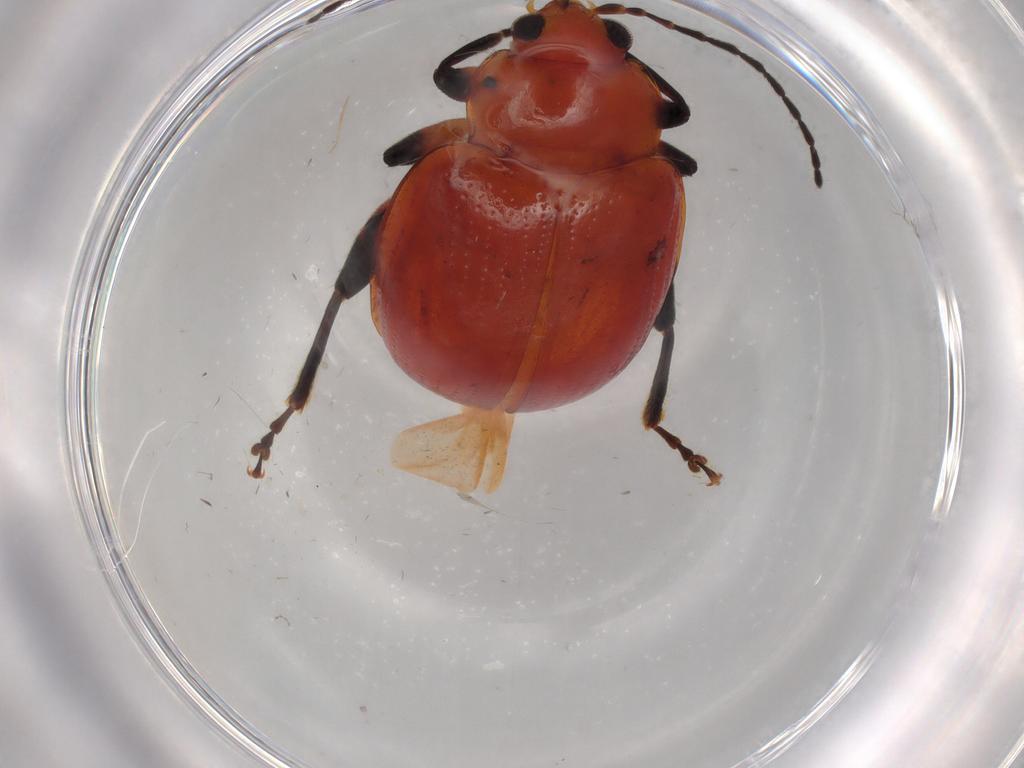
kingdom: Animalia
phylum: Arthropoda
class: Insecta
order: Coleoptera
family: Chrysomelidae
